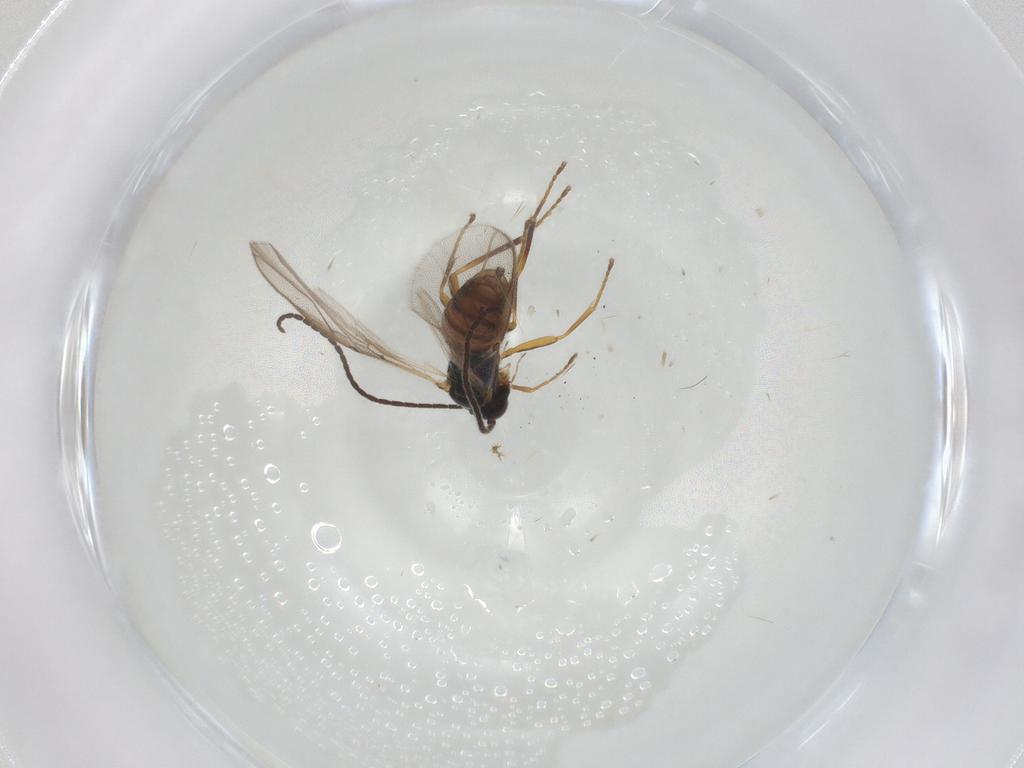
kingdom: Animalia
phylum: Arthropoda
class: Insecta
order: Hymenoptera
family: Braconidae
